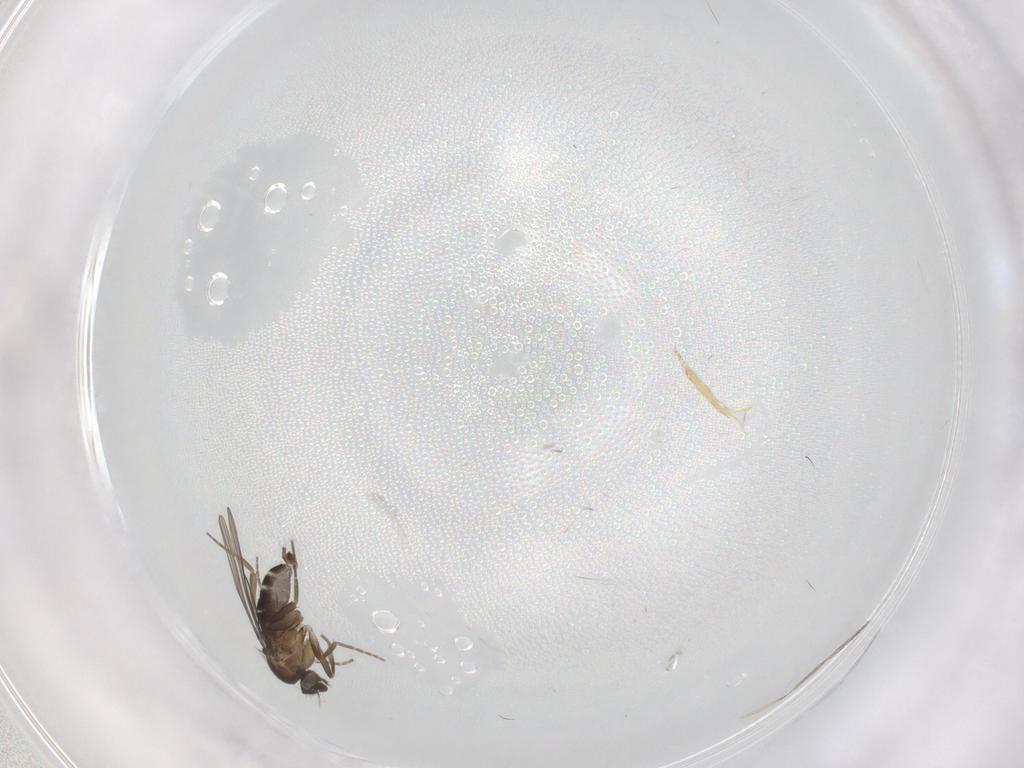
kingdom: Animalia
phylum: Arthropoda
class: Insecta
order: Diptera
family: Phoridae
